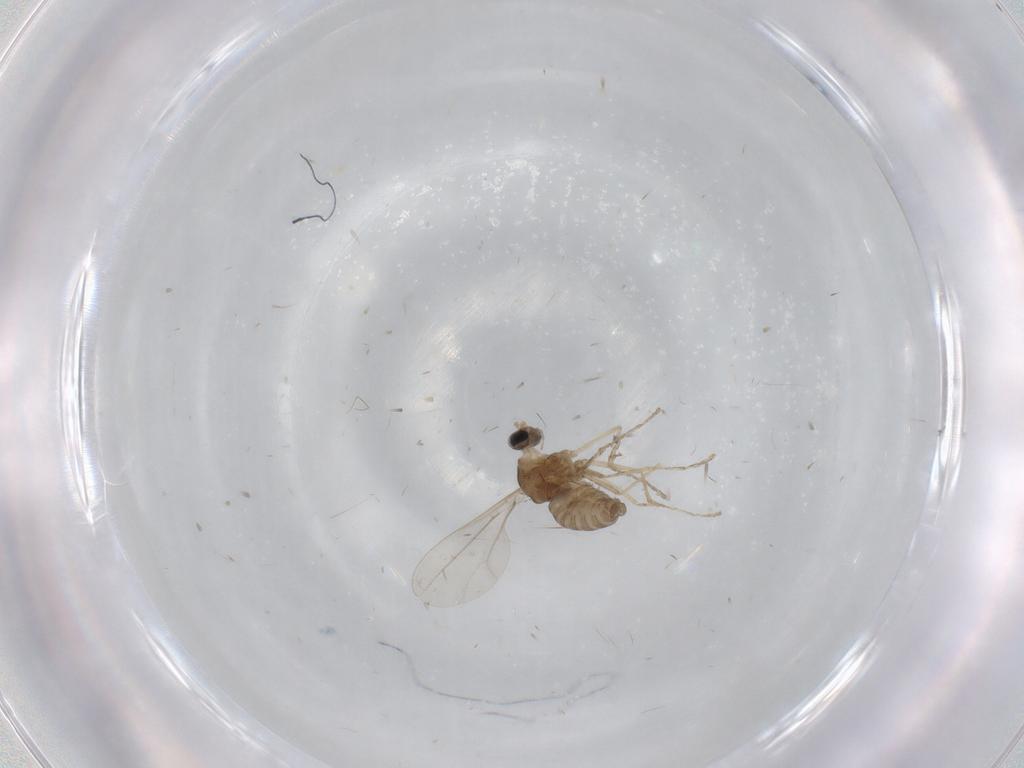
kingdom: Animalia
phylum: Arthropoda
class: Insecta
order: Diptera
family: Cecidomyiidae
